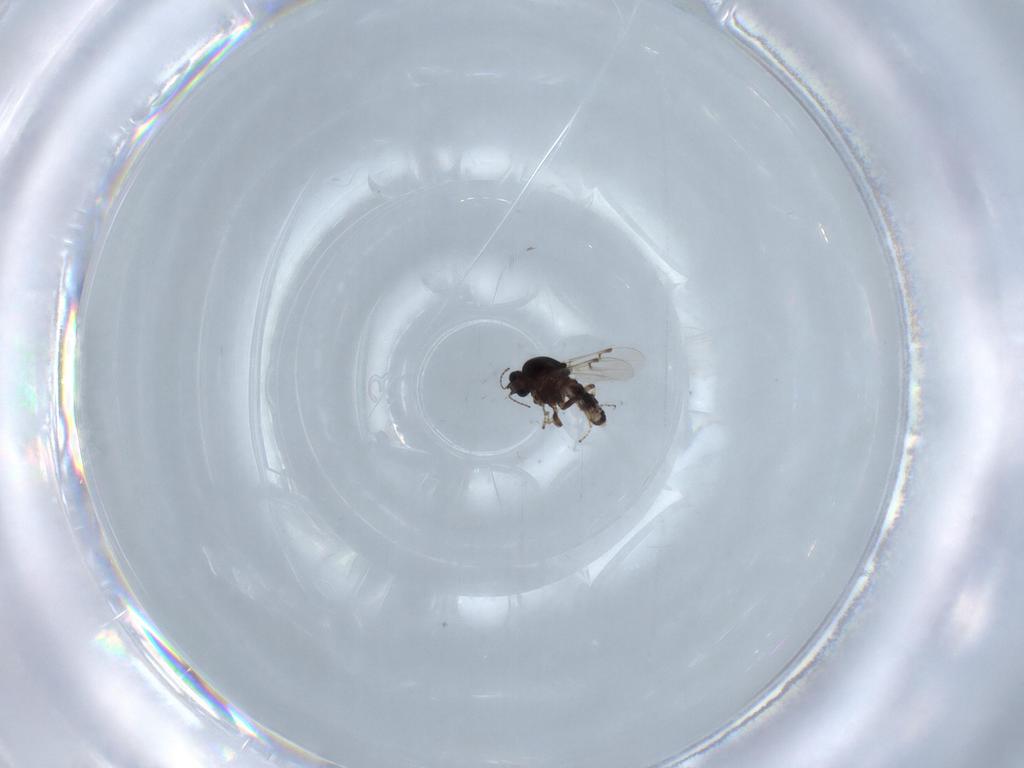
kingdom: Animalia
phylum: Arthropoda
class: Insecta
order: Diptera
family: Ceratopogonidae
